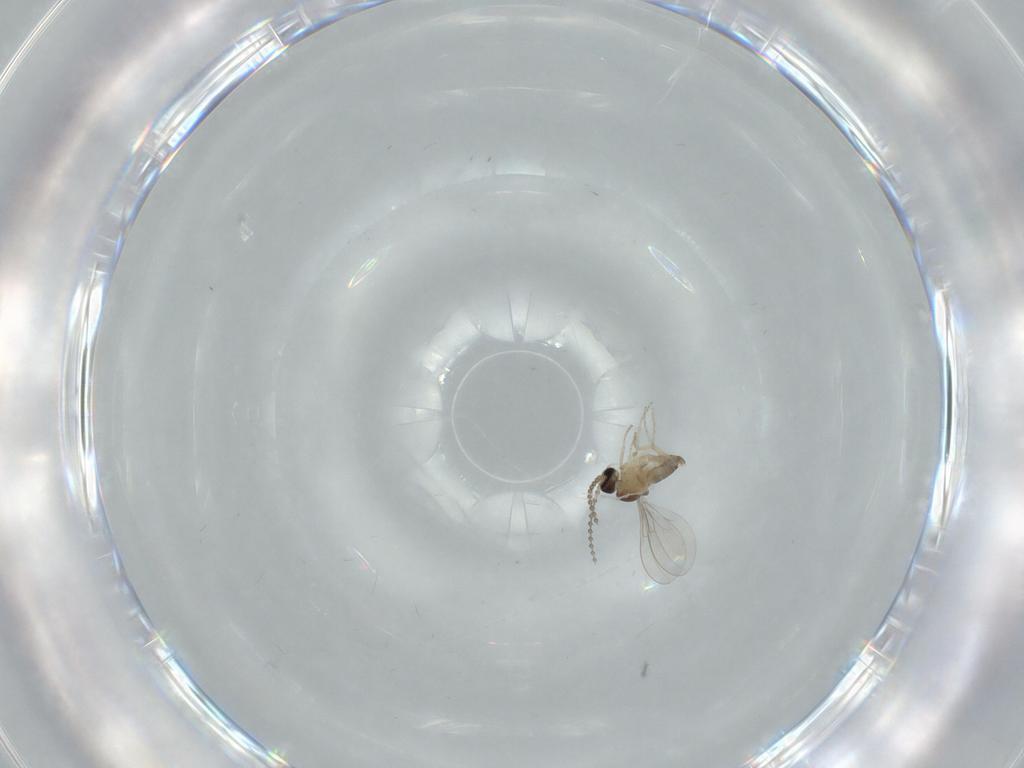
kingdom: Animalia
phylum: Arthropoda
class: Insecta
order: Diptera
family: Cecidomyiidae
